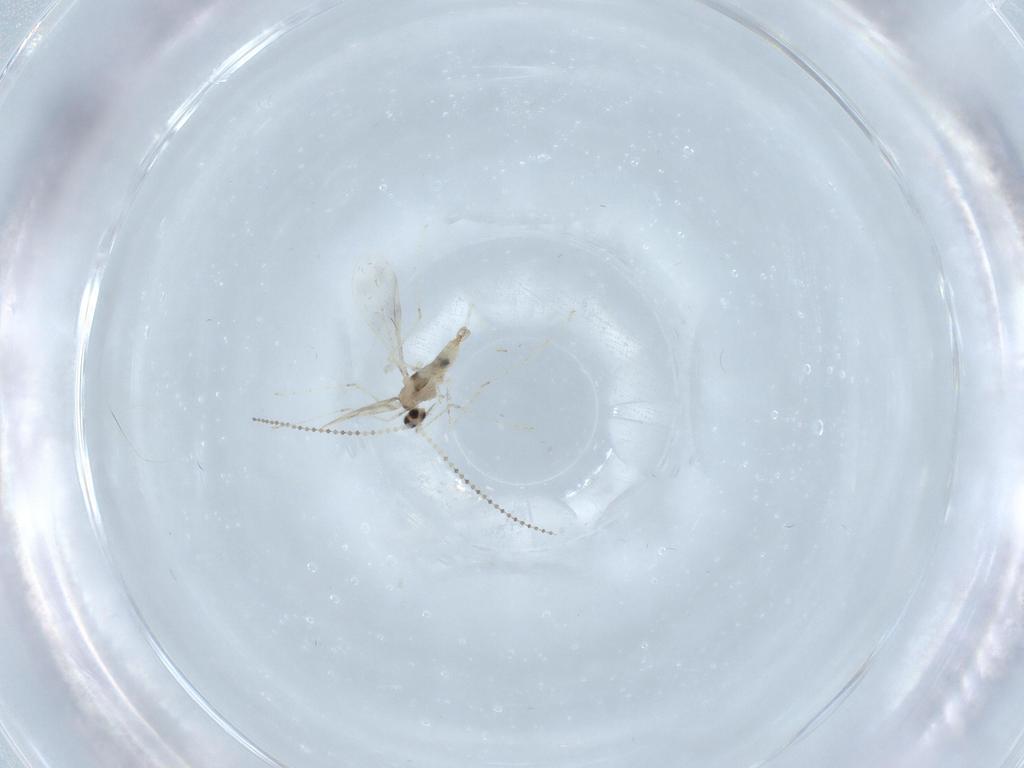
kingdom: Animalia
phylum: Arthropoda
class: Insecta
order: Diptera
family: Cecidomyiidae
